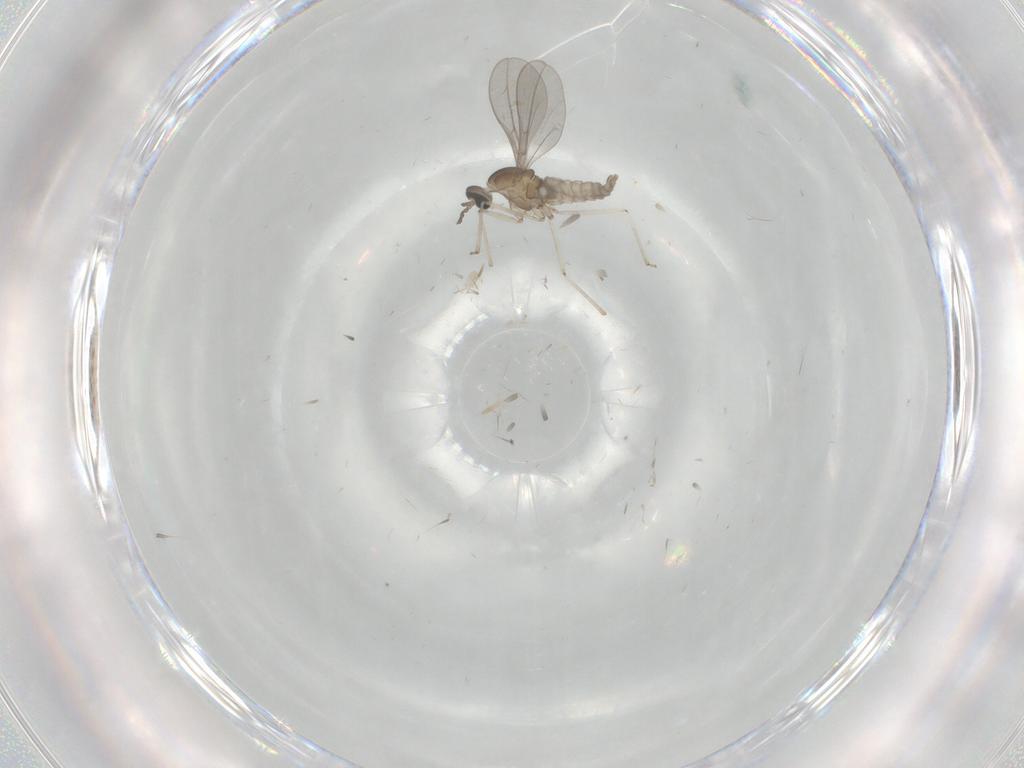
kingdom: Animalia
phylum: Arthropoda
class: Insecta
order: Diptera
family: Cecidomyiidae
